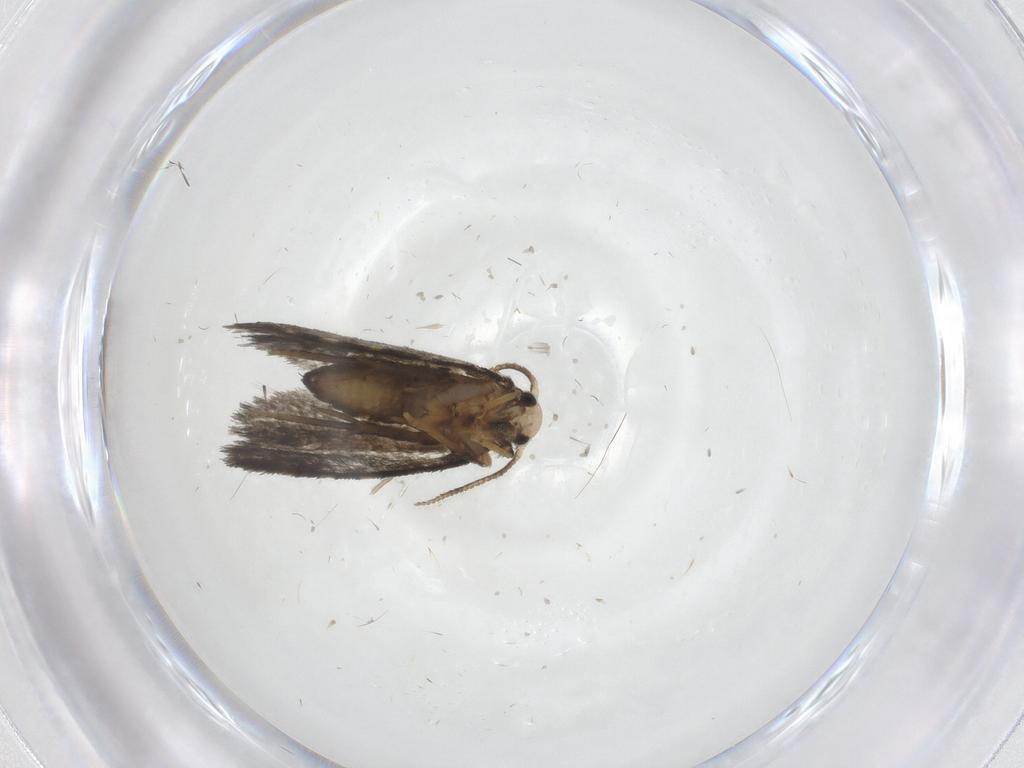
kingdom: Animalia
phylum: Arthropoda
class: Insecta
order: Lepidoptera
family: Psychidae
